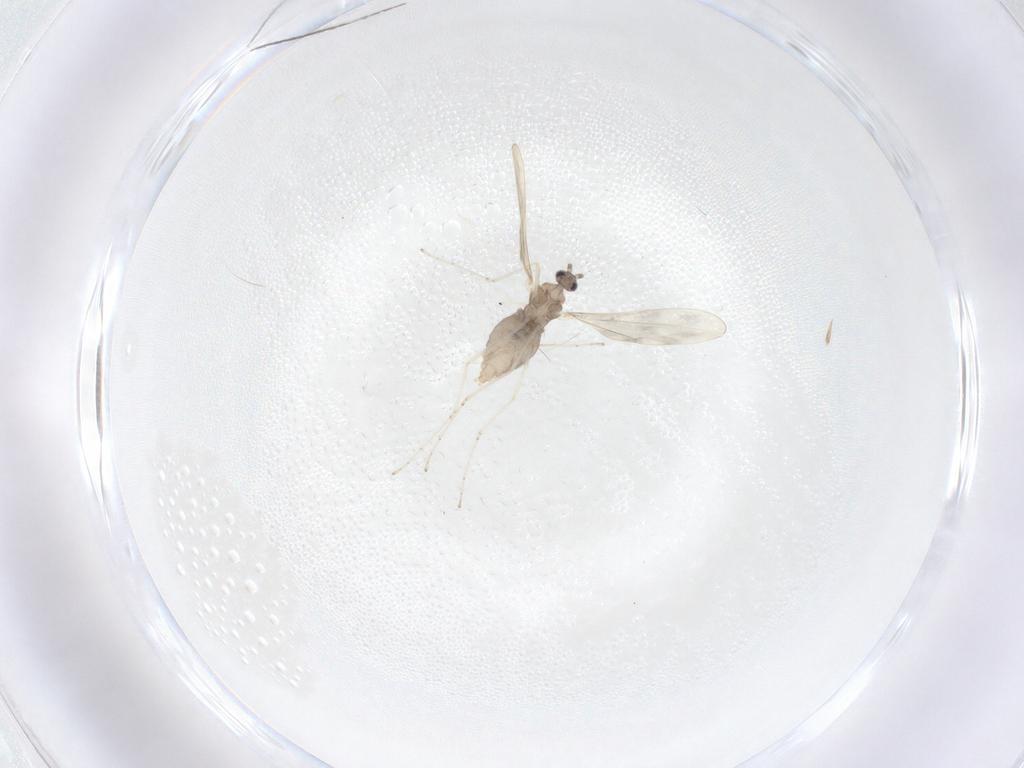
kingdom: Animalia
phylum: Arthropoda
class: Insecta
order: Diptera
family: Cecidomyiidae
